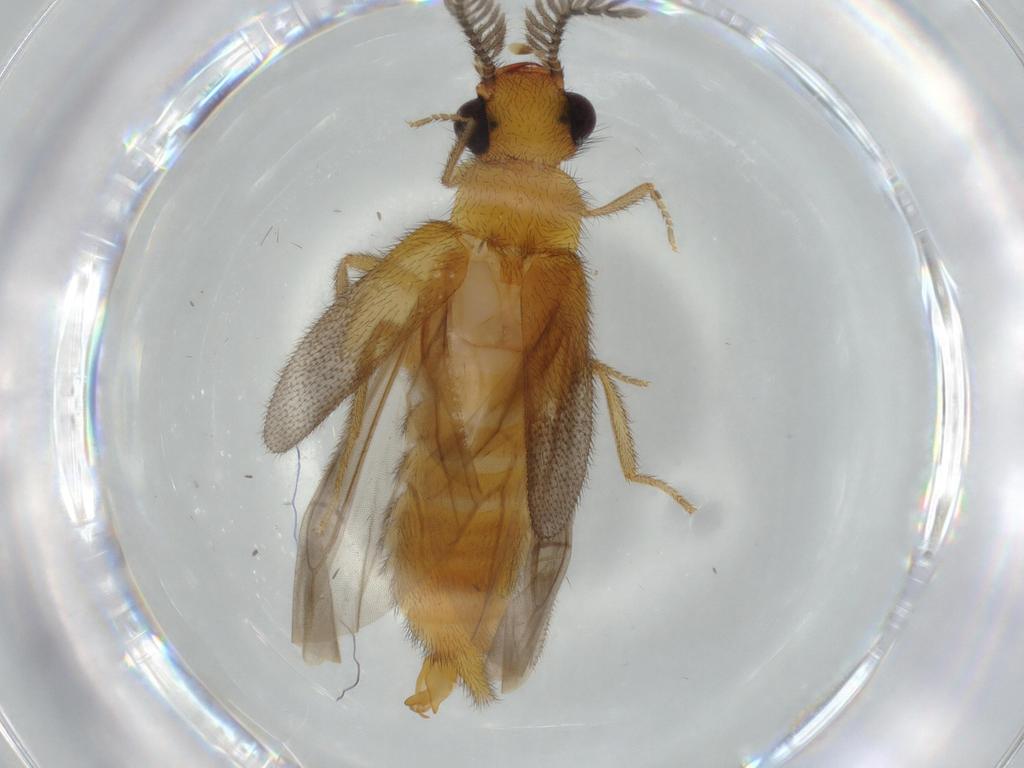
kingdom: Animalia
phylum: Arthropoda
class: Insecta
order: Coleoptera
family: Phengodidae
